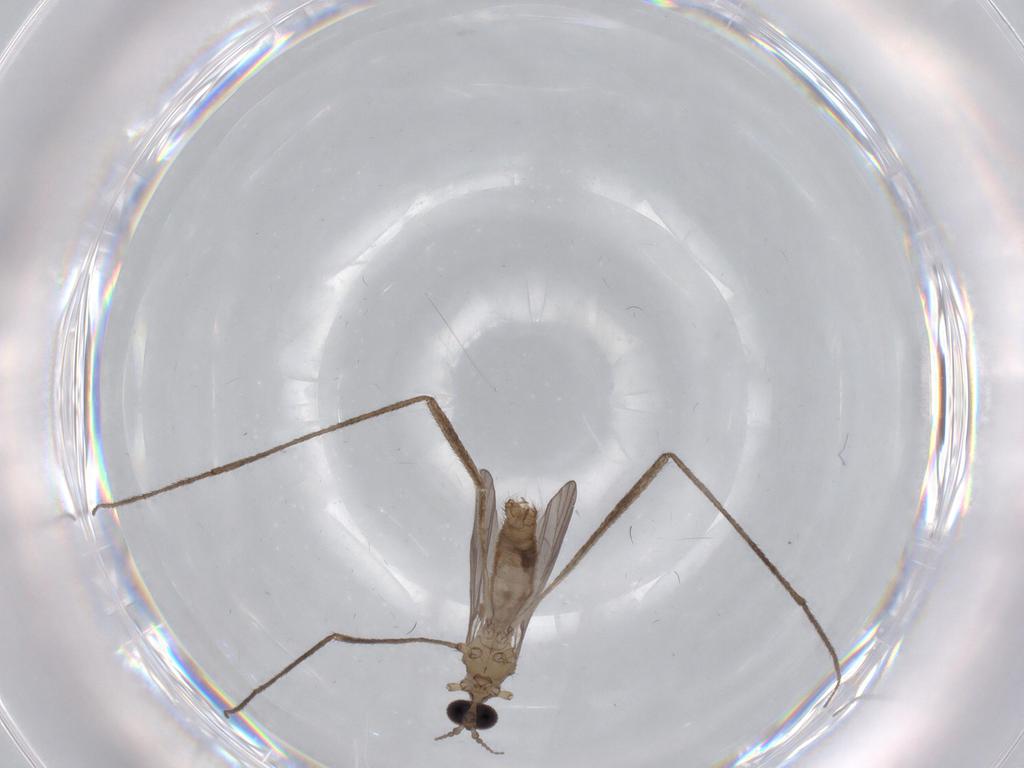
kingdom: Animalia
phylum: Arthropoda
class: Insecta
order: Diptera
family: Limoniidae
